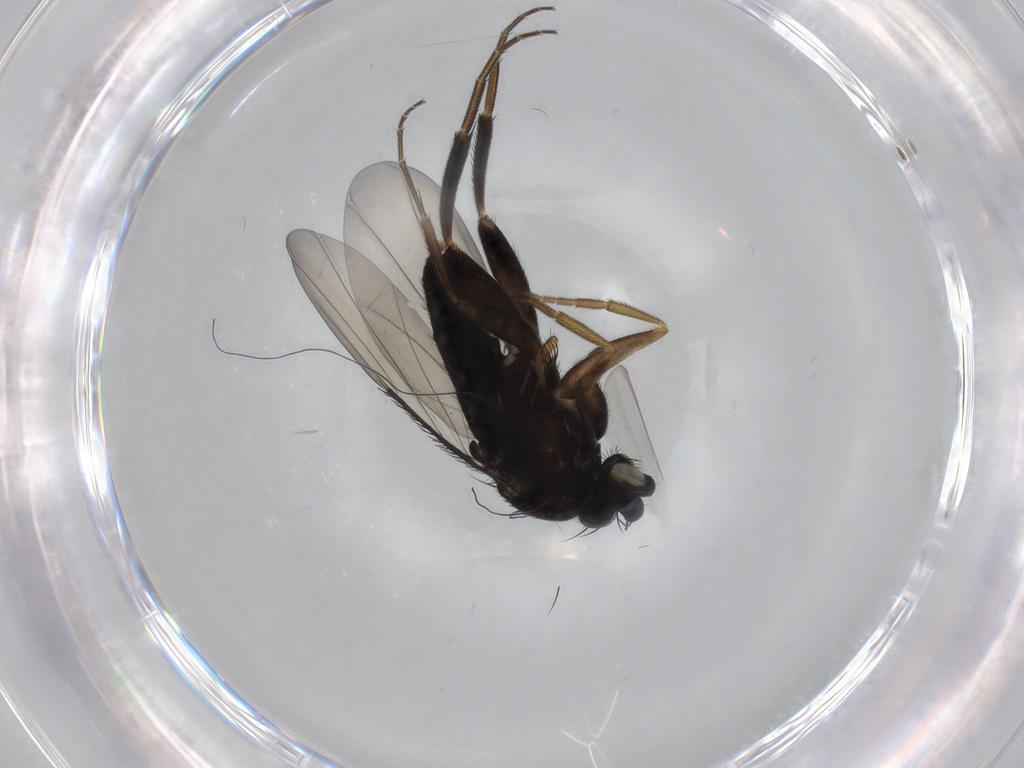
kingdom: Animalia
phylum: Arthropoda
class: Insecta
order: Diptera
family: Phoridae
